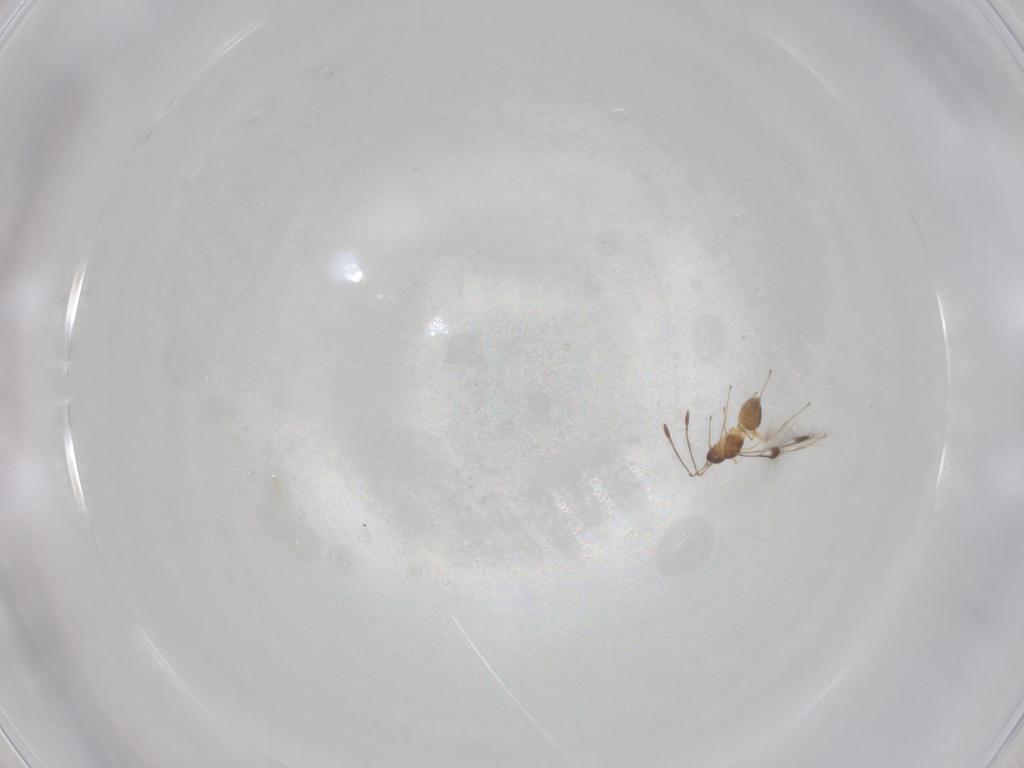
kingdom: Animalia
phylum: Arthropoda
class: Insecta
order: Hymenoptera
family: Mymaridae
